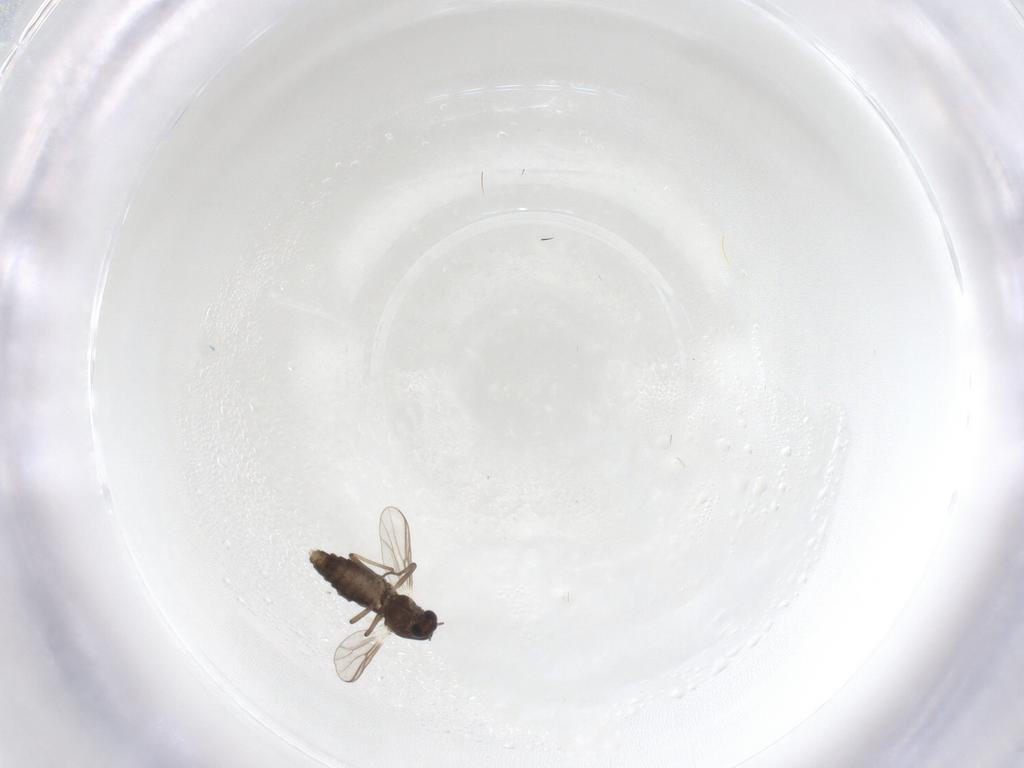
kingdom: Animalia
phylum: Arthropoda
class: Insecta
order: Diptera
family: Chironomidae
